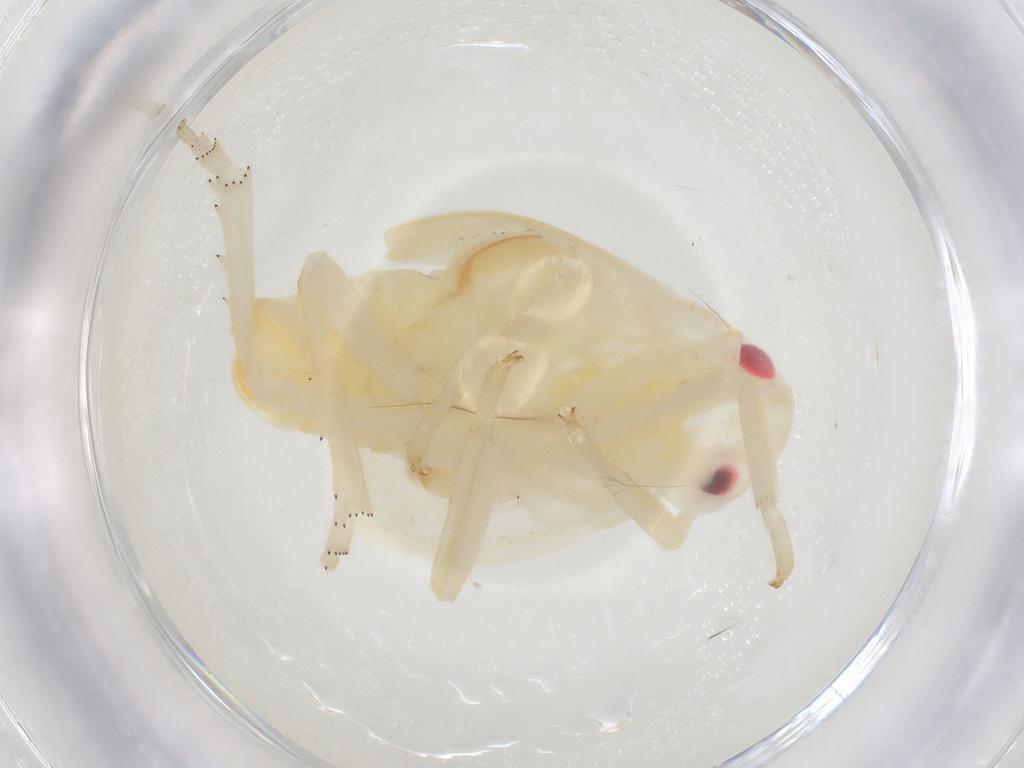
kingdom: Animalia
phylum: Arthropoda
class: Insecta
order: Hemiptera
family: Flatidae
